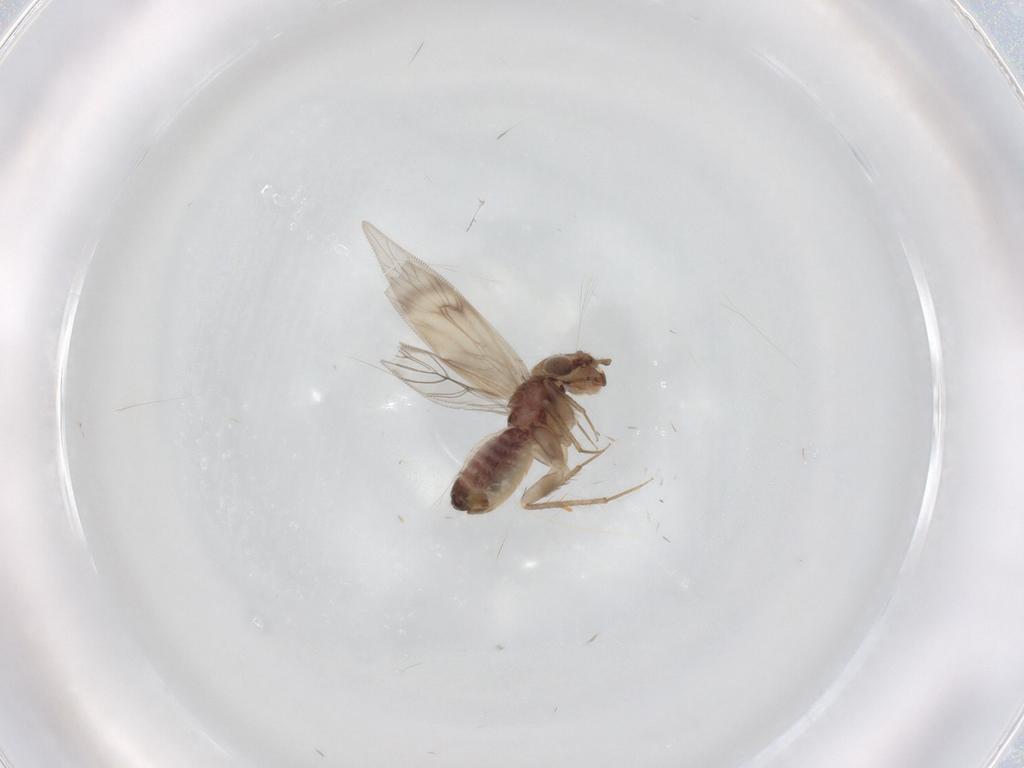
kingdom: Animalia
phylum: Arthropoda
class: Insecta
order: Psocodea
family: Lepidopsocidae
